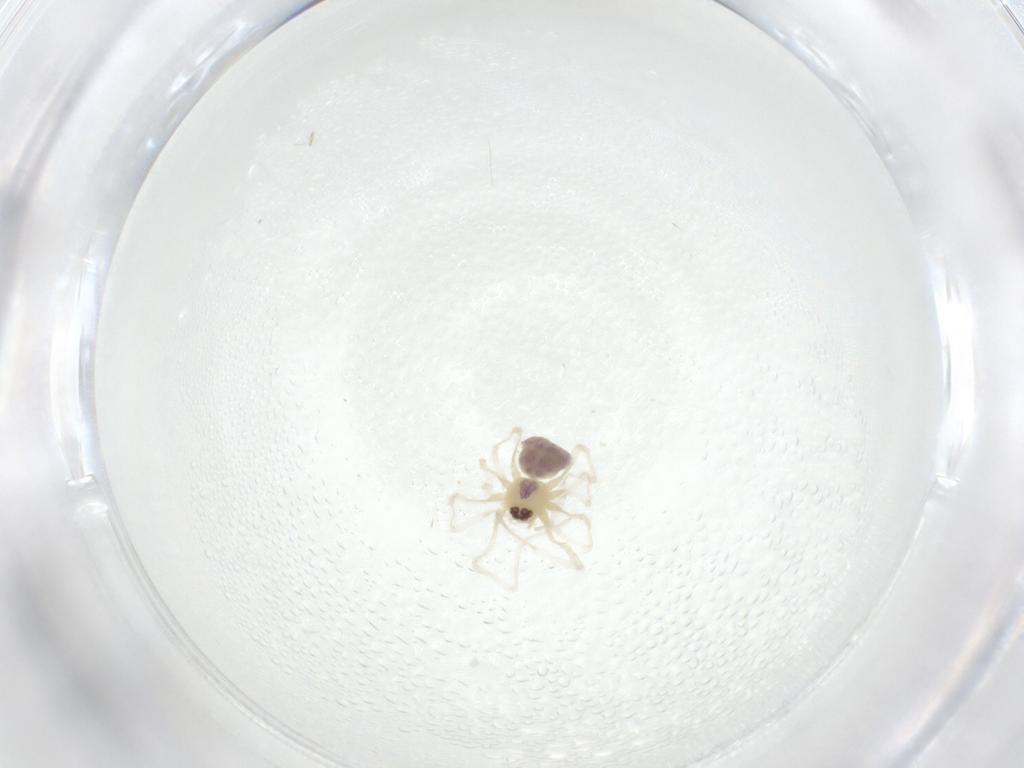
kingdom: Animalia
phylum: Arthropoda
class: Arachnida
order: Araneae
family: Pholcidae
